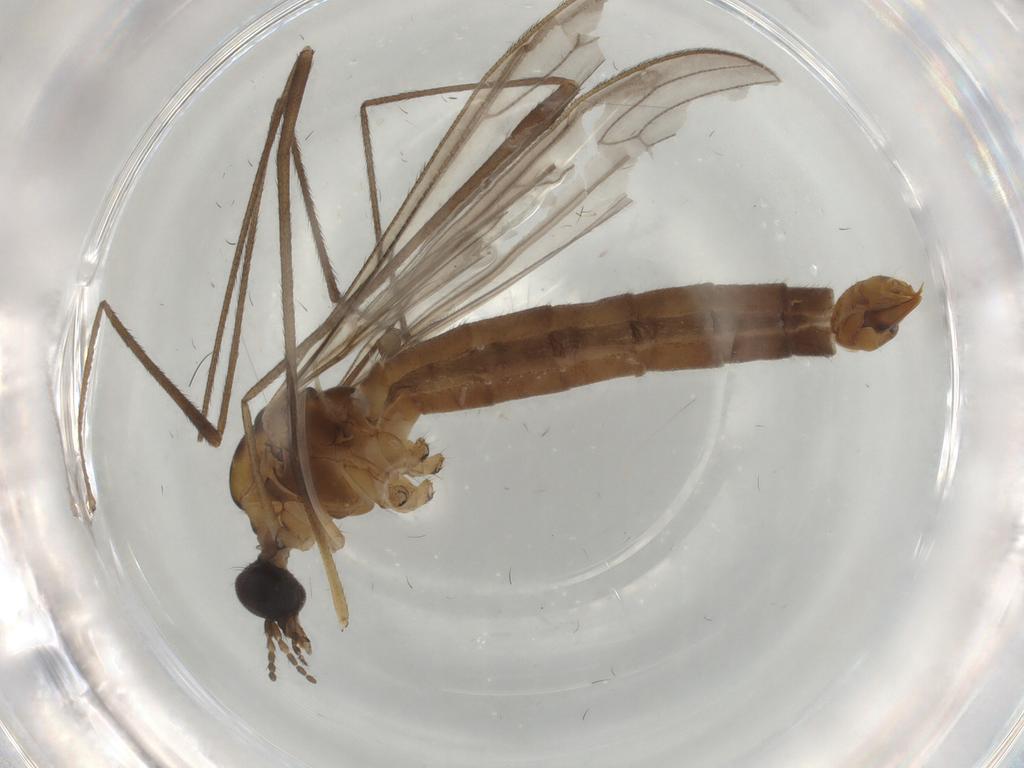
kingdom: Animalia
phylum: Arthropoda
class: Insecta
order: Diptera
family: Limoniidae
